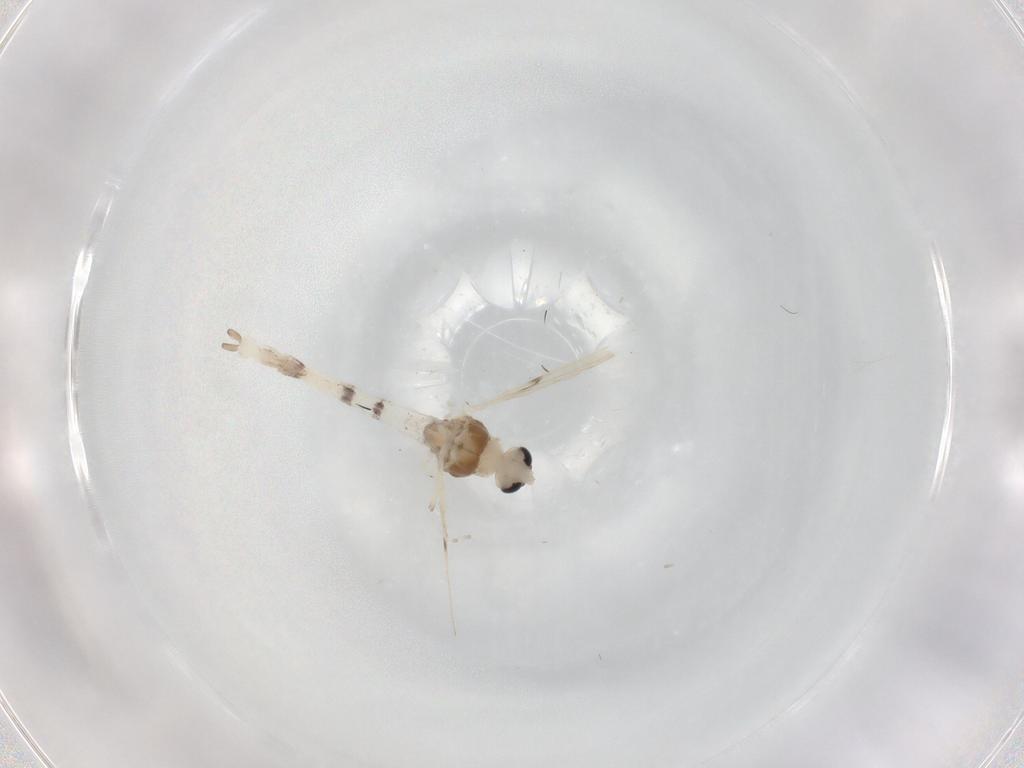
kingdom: Animalia
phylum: Arthropoda
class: Insecta
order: Diptera
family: Chironomidae
